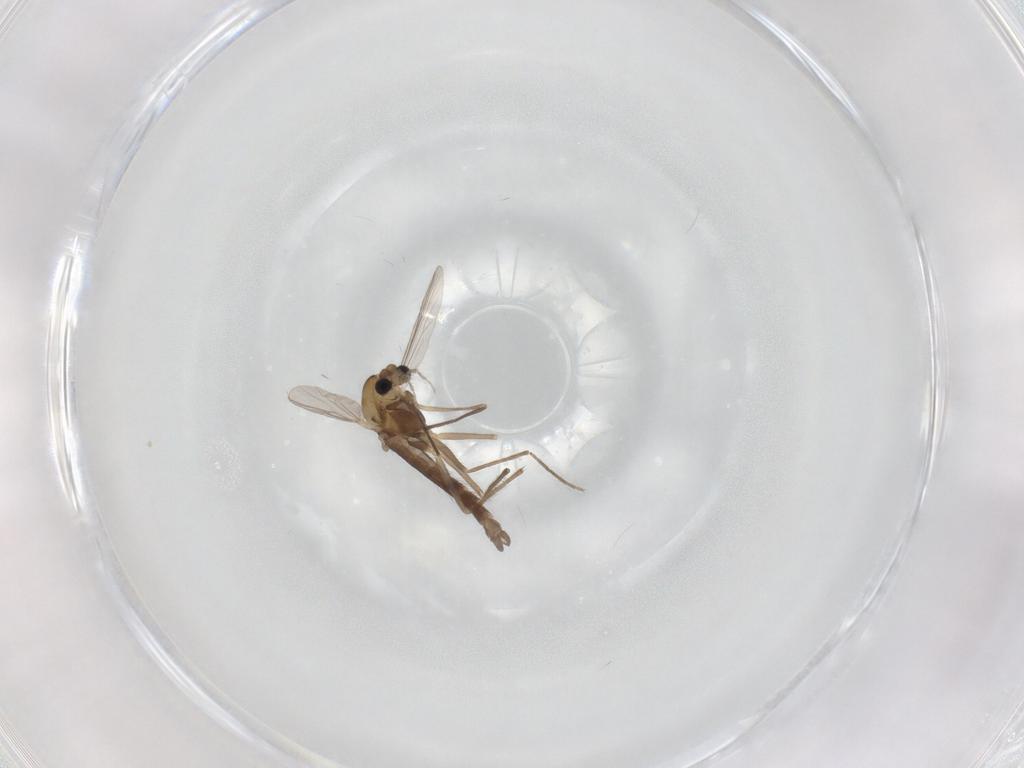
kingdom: Animalia
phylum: Arthropoda
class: Insecta
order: Diptera
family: Chironomidae
